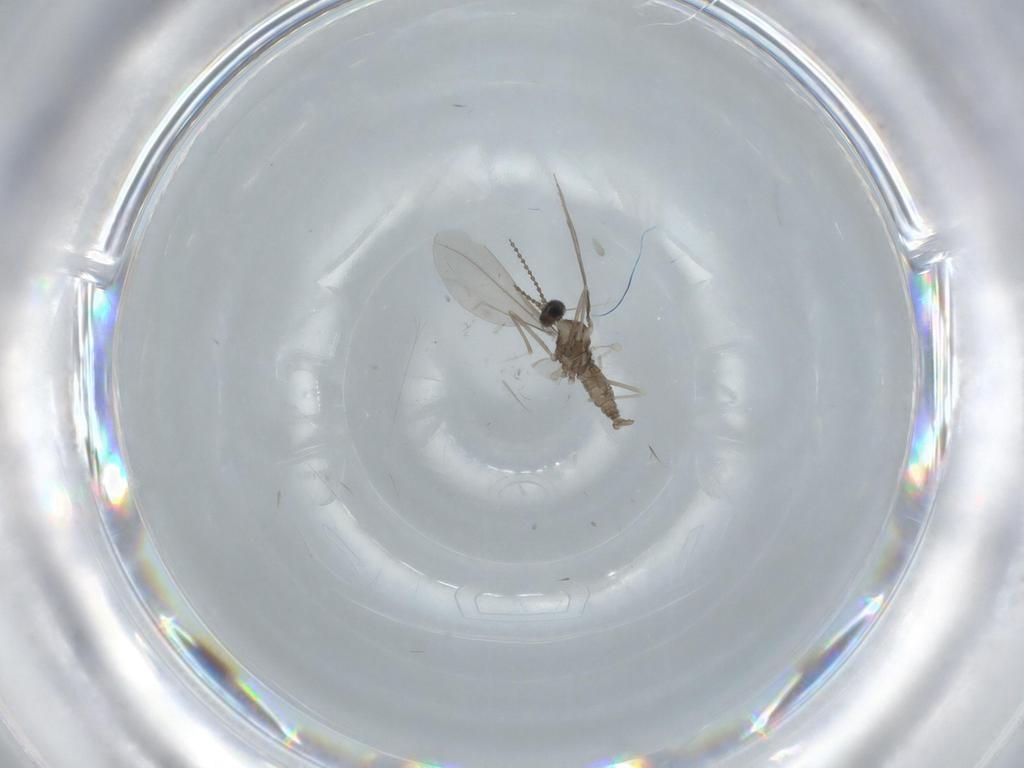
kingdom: Animalia
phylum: Arthropoda
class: Insecta
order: Diptera
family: Cecidomyiidae
